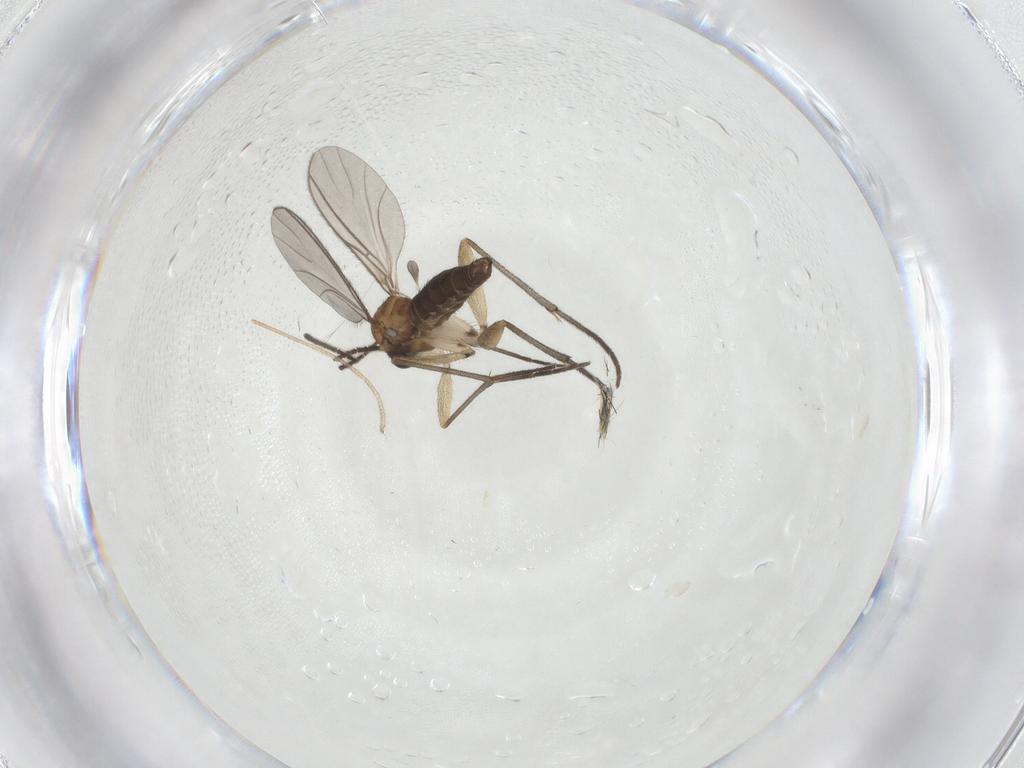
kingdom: Animalia
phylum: Arthropoda
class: Insecta
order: Diptera
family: Sciaridae
